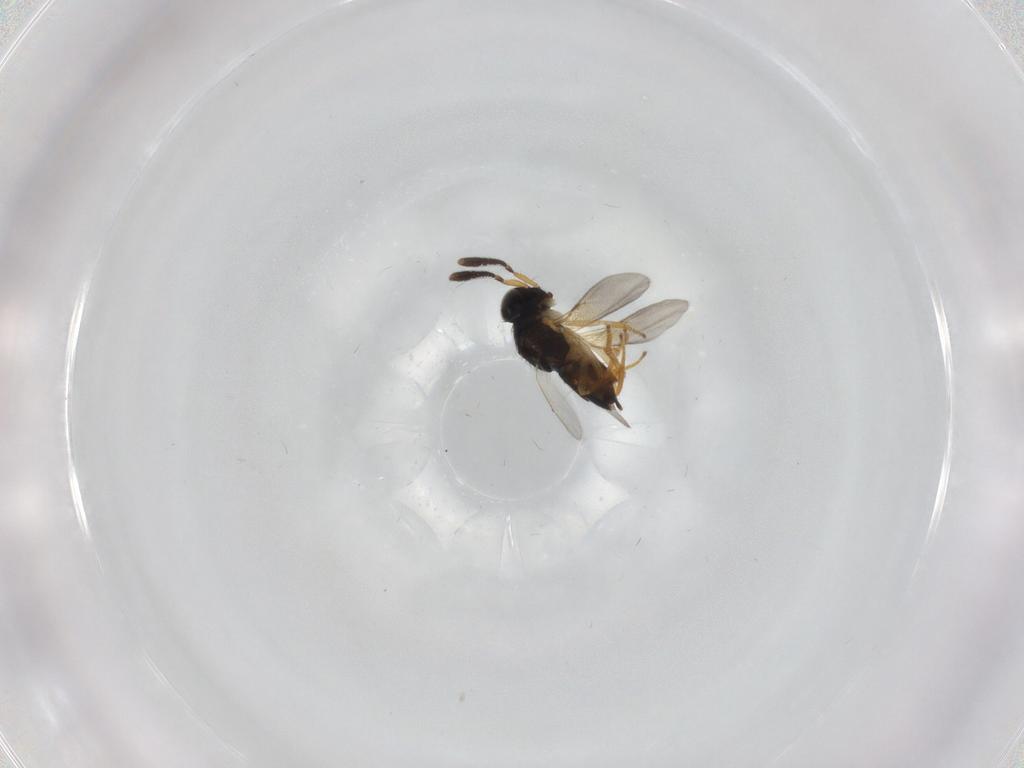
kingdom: Animalia
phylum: Arthropoda
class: Insecta
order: Hymenoptera
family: Encyrtidae
